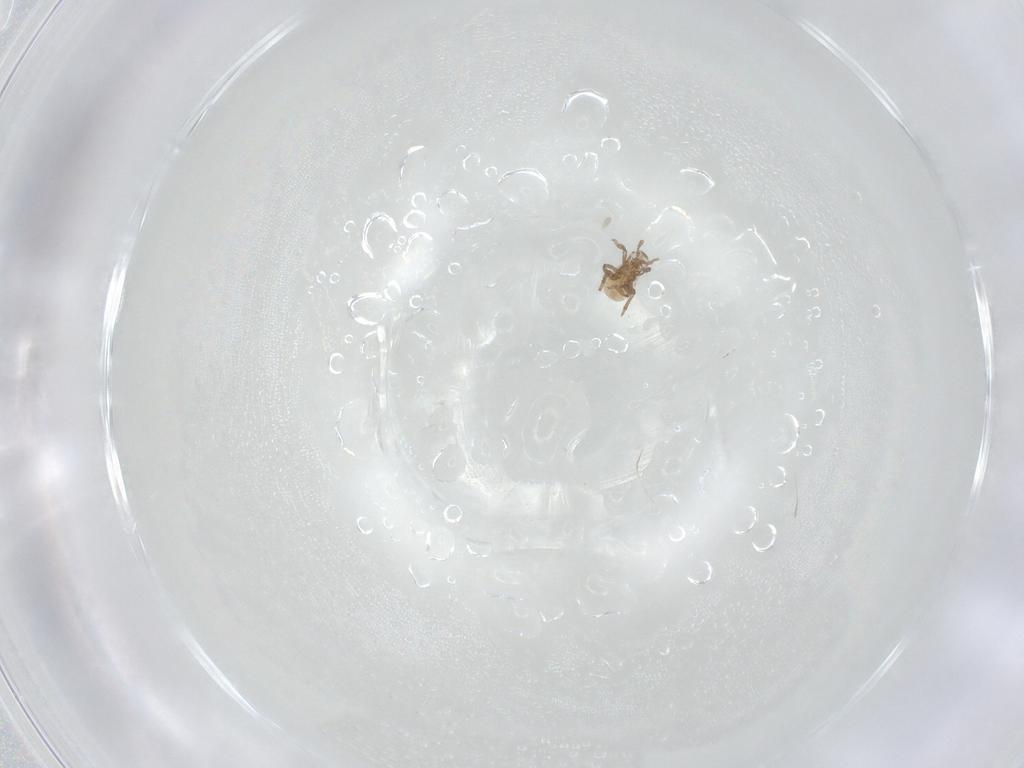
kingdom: Animalia
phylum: Arthropoda
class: Insecta
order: Hemiptera
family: Aphididae
